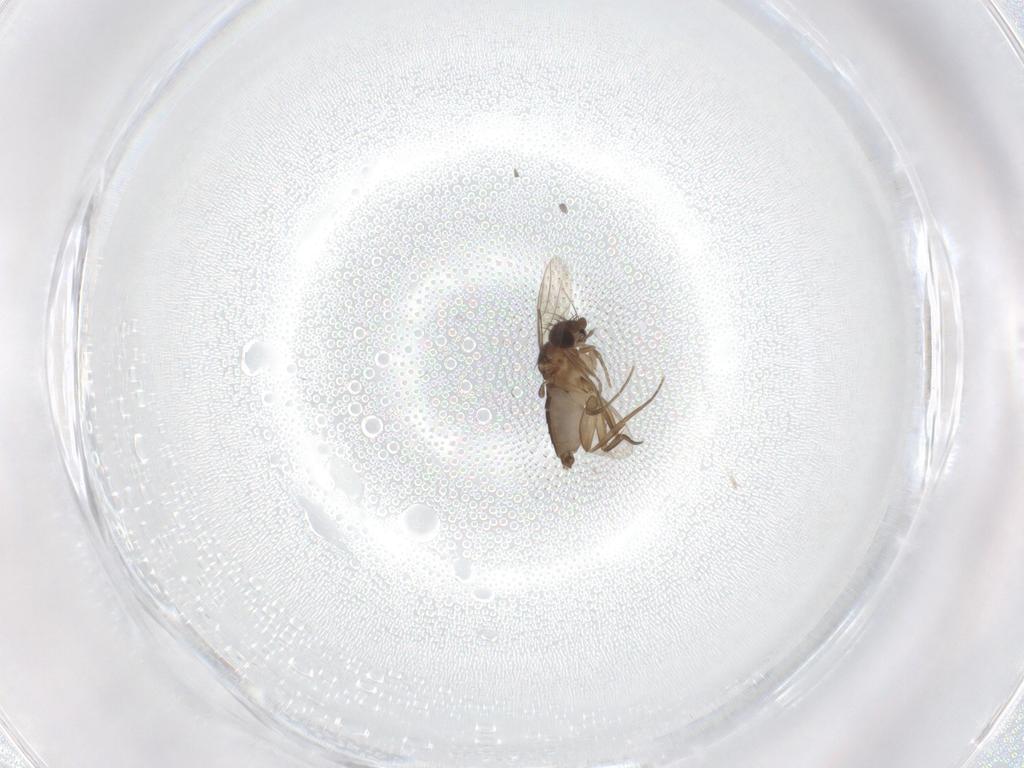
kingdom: Animalia
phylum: Arthropoda
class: Insecta
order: Diptera
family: Phoridae
